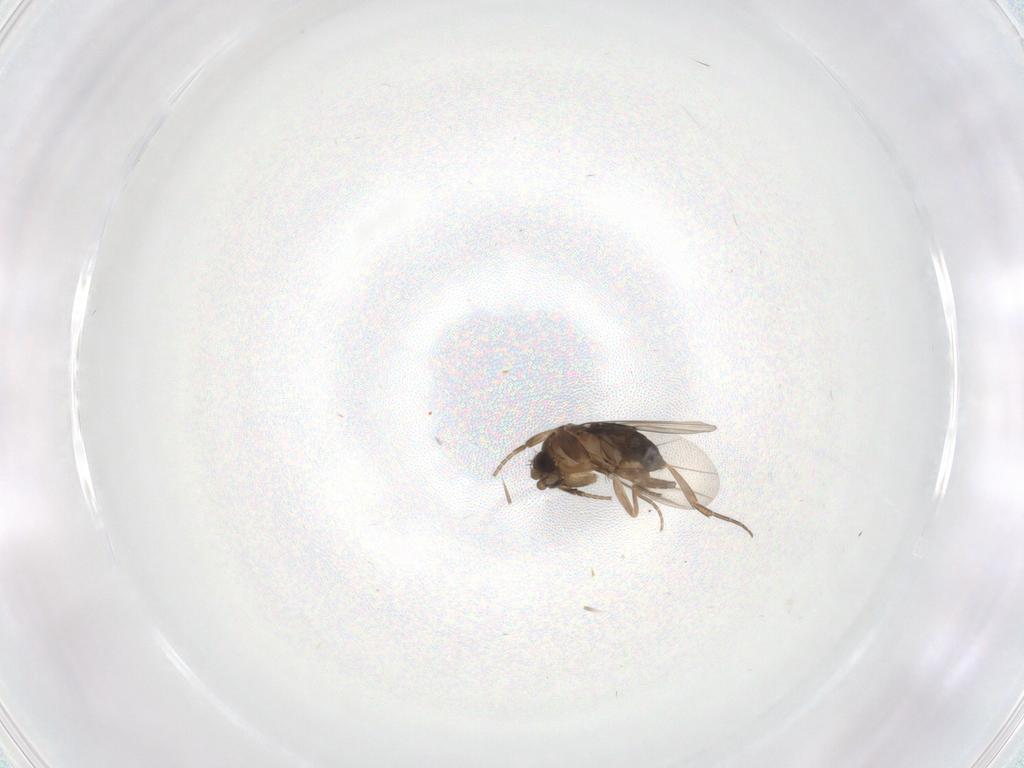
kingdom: Animalia
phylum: Arthropoda
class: Insecta
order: Diptera
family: Phoridae
